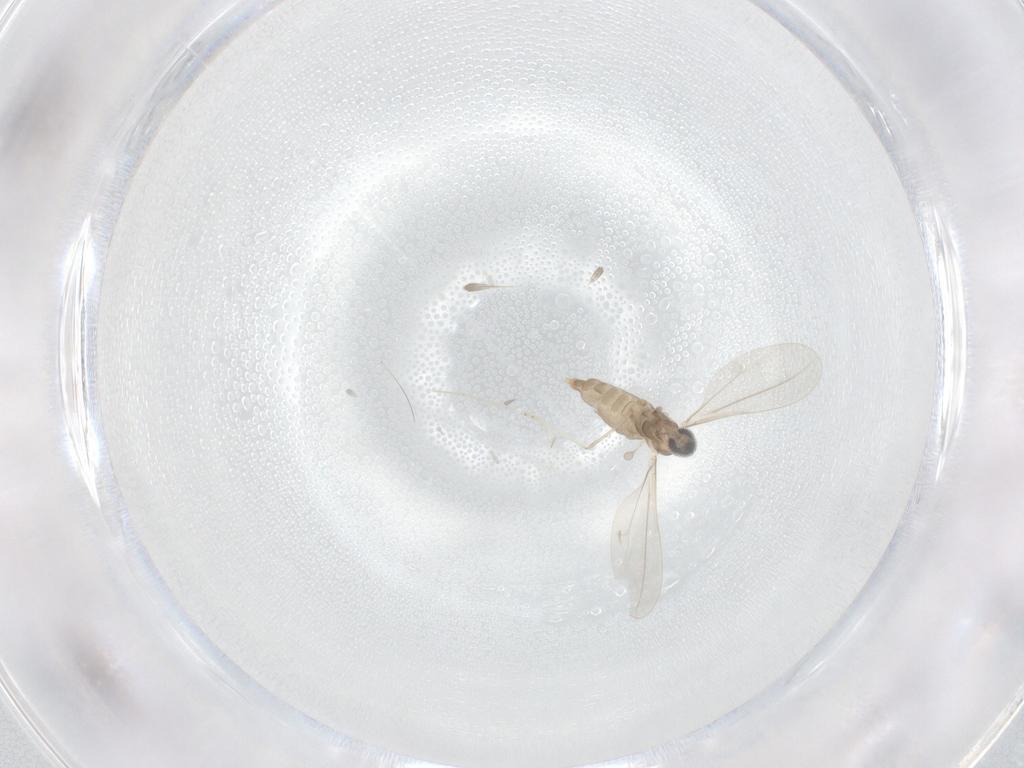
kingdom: Animalia
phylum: Arthropoda
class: Insecta
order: Diptera
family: Cecidomyiidae
